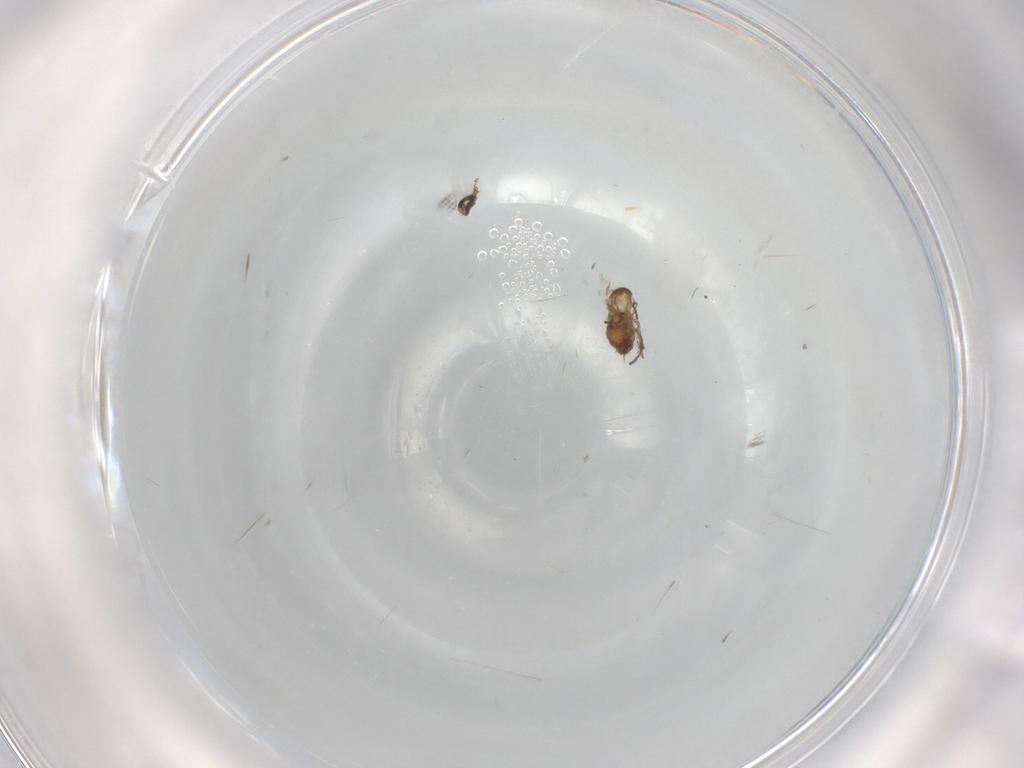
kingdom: Animalia
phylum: Arthropoda
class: Insecta
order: Diptera
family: Psychodidae
